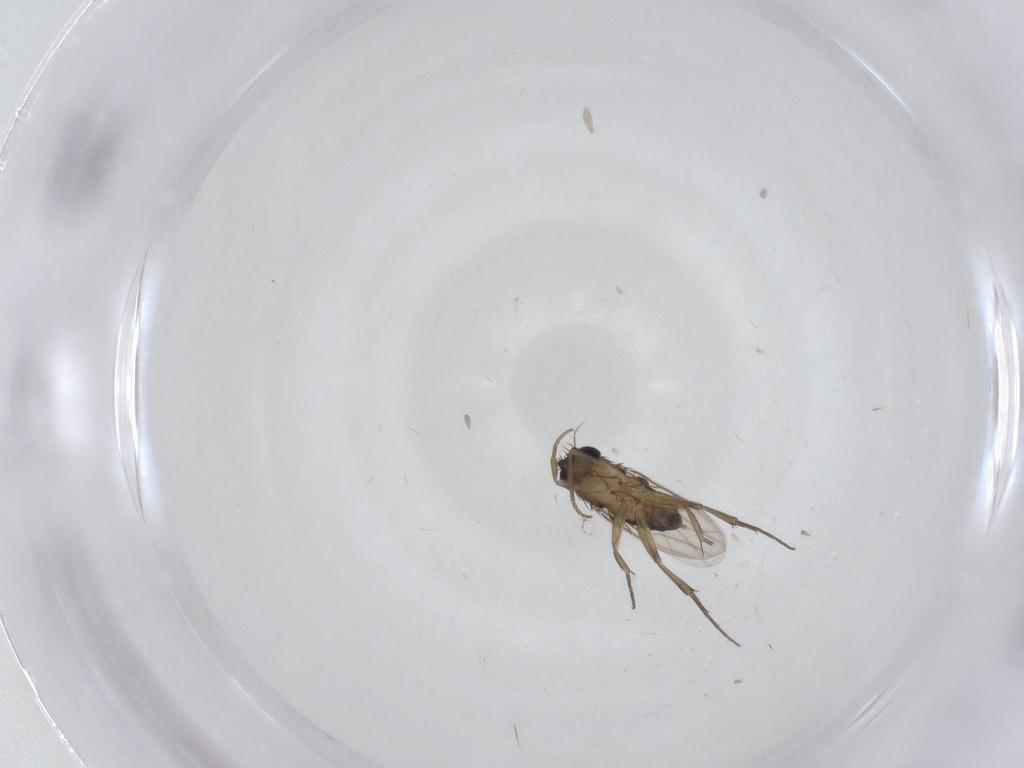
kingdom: Animalia
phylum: Arthropoda
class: Insecta
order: Diptera
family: Phoridae
